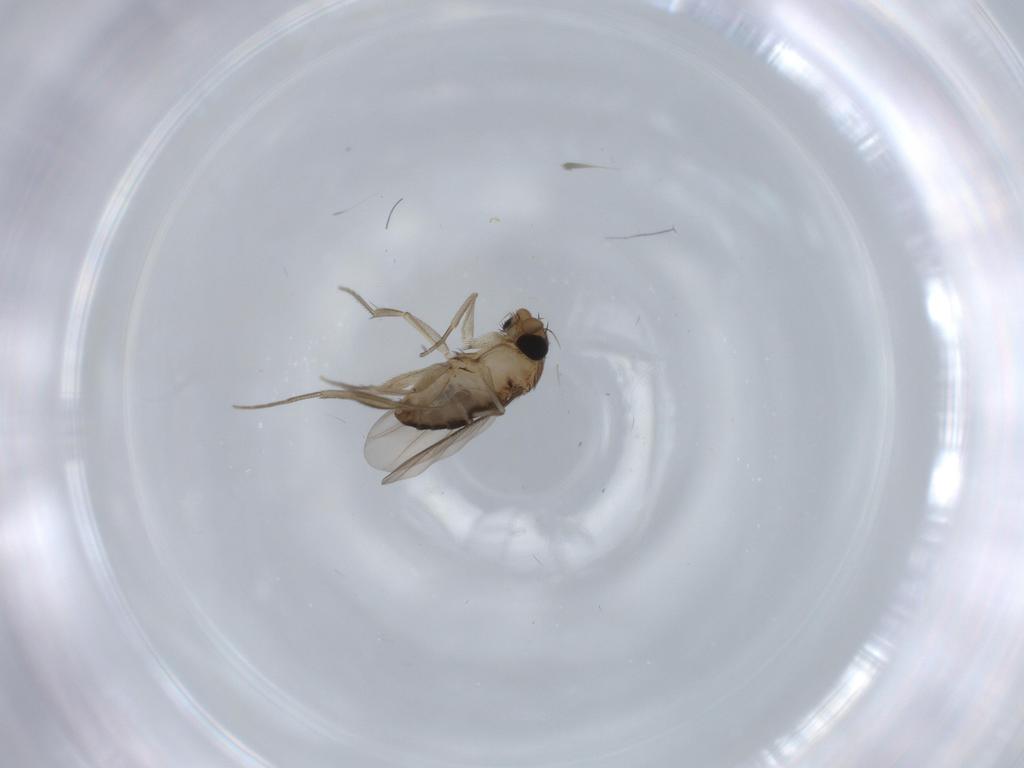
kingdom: Animalia
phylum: Arthropoda
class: Insecta
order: Diptera
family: Phoridae
